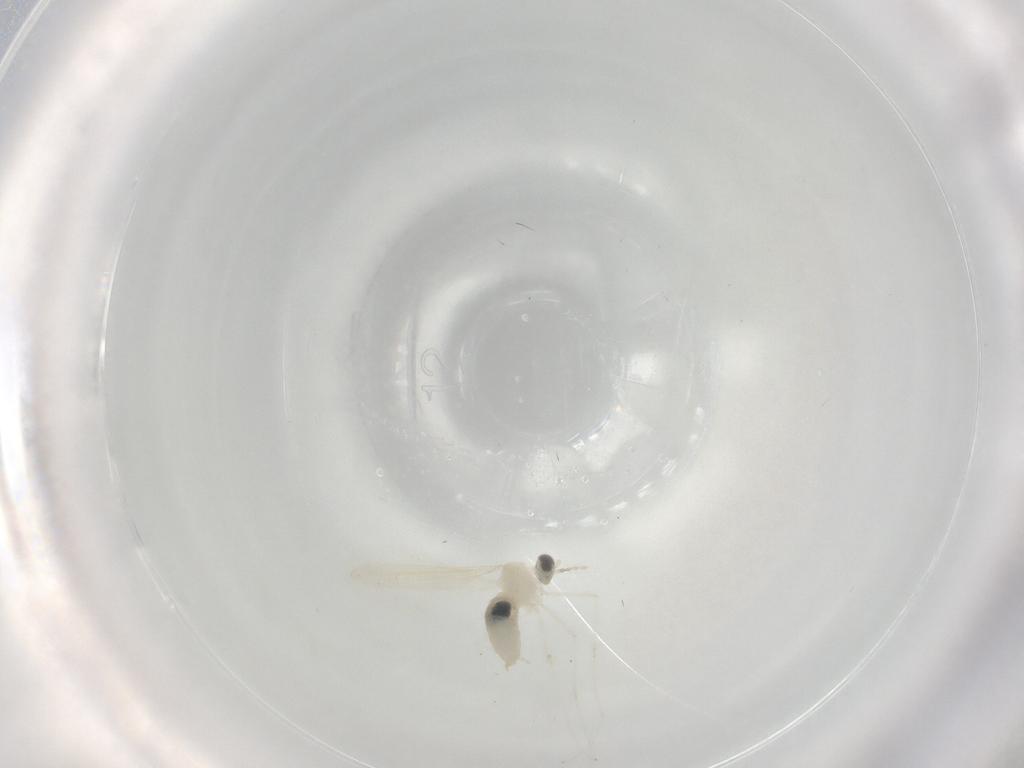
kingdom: Animalia
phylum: Arthropoda
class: Insecta
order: Diptera
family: Cecidomyiidae
